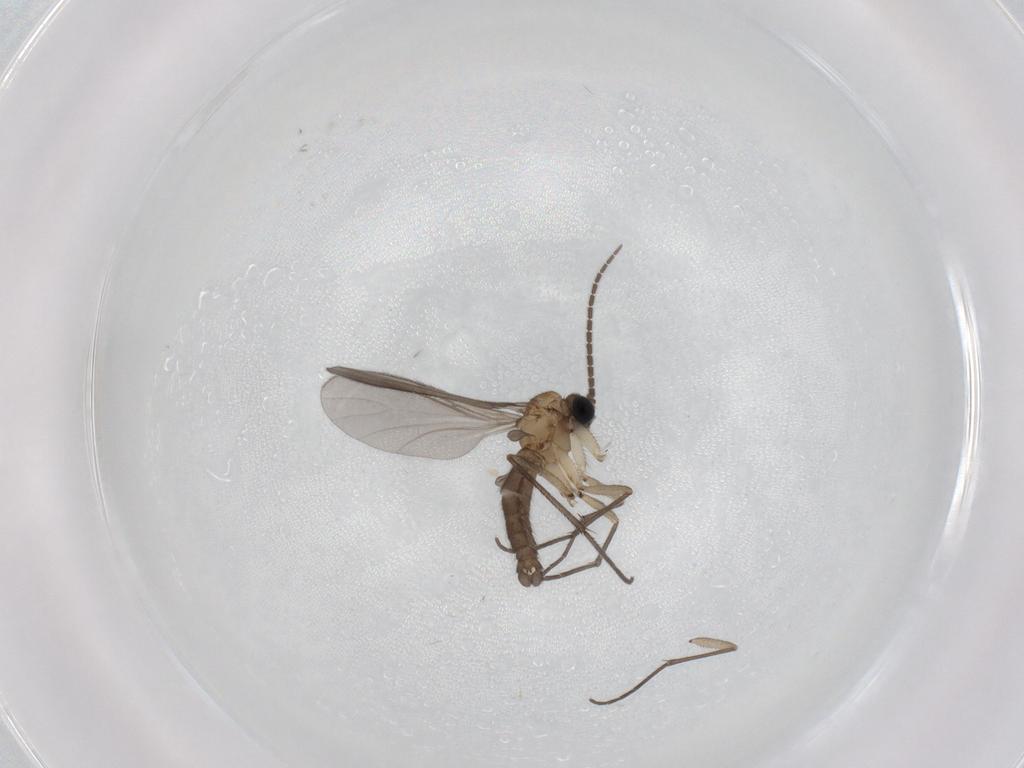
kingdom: Animalia
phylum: Arthropoda
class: Insecta
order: Diptera
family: Sciaridae
